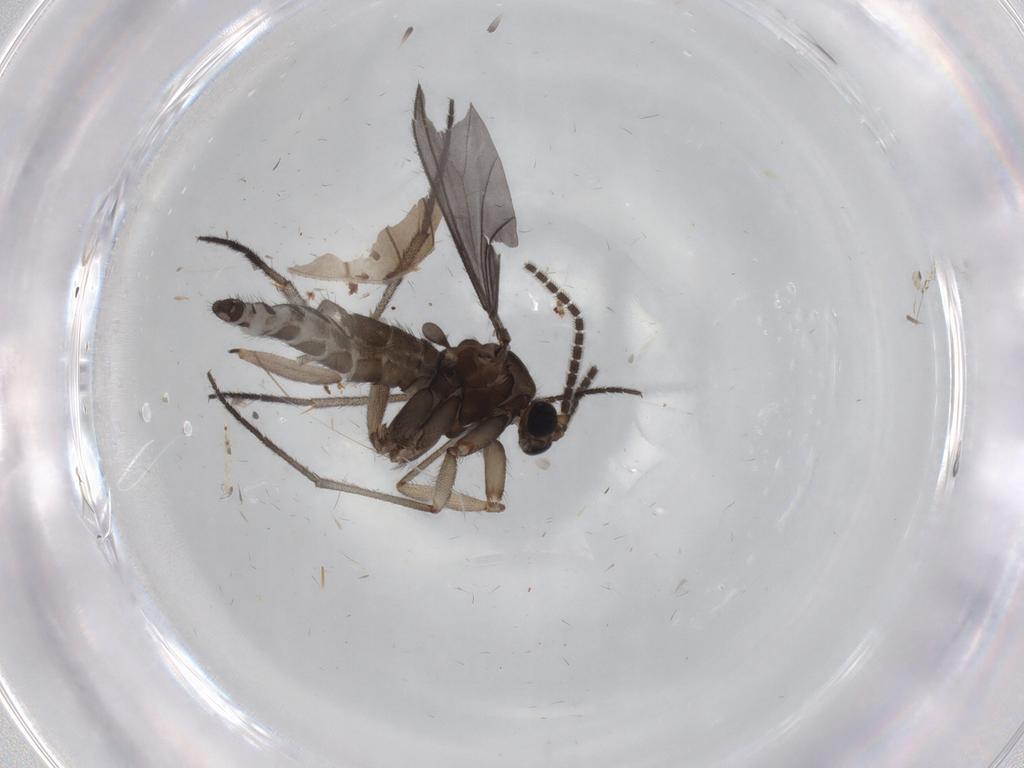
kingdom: Animalia
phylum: Arthropoda
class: Insecta
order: Diptera
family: Sciaridae
